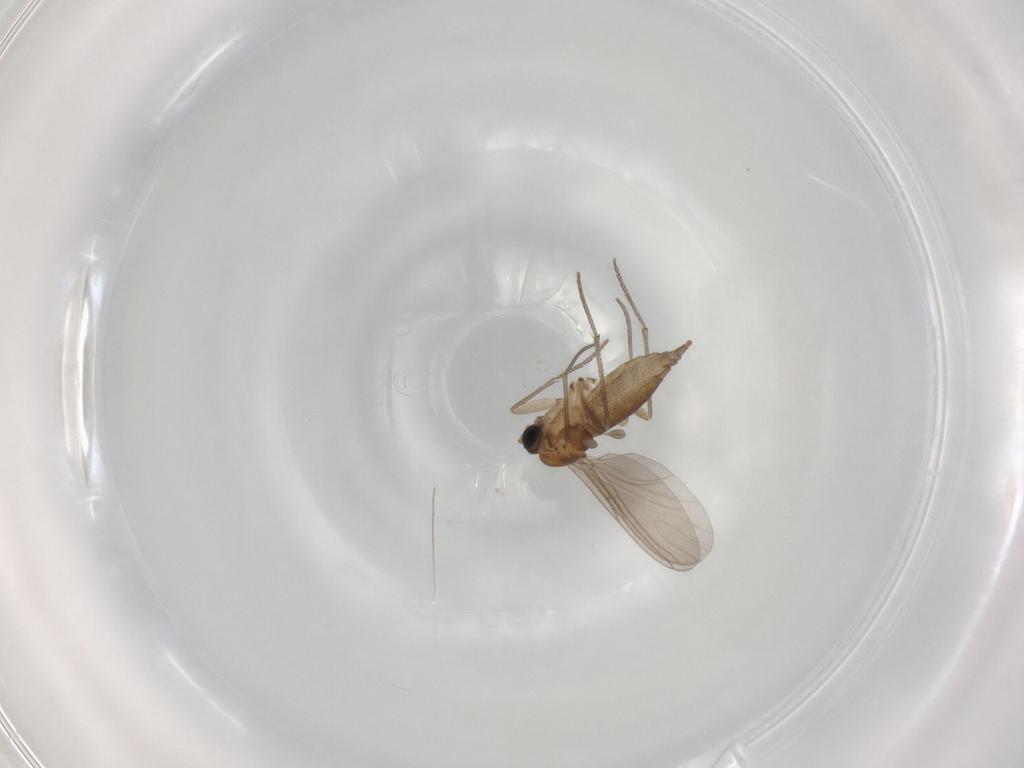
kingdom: Animalia
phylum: Arthropoda
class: Insecta
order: Diptera
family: Sciaridae
